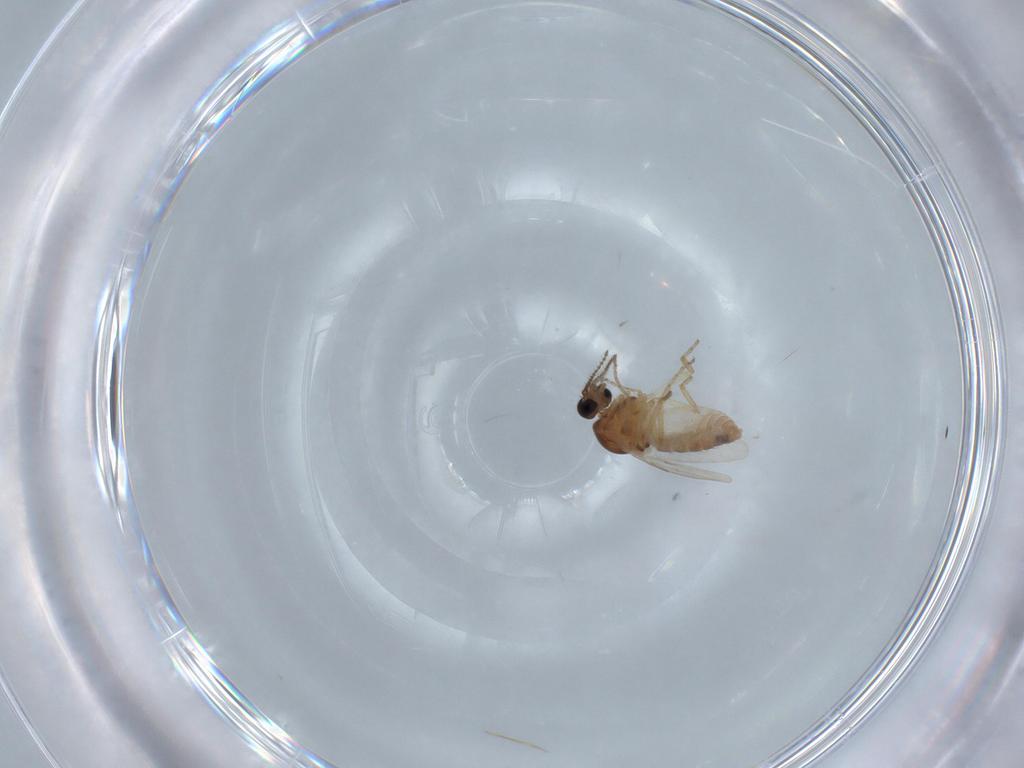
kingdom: Animalia
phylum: Arthropoda
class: Insecta
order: Diptera
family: Ceratopogonidae
